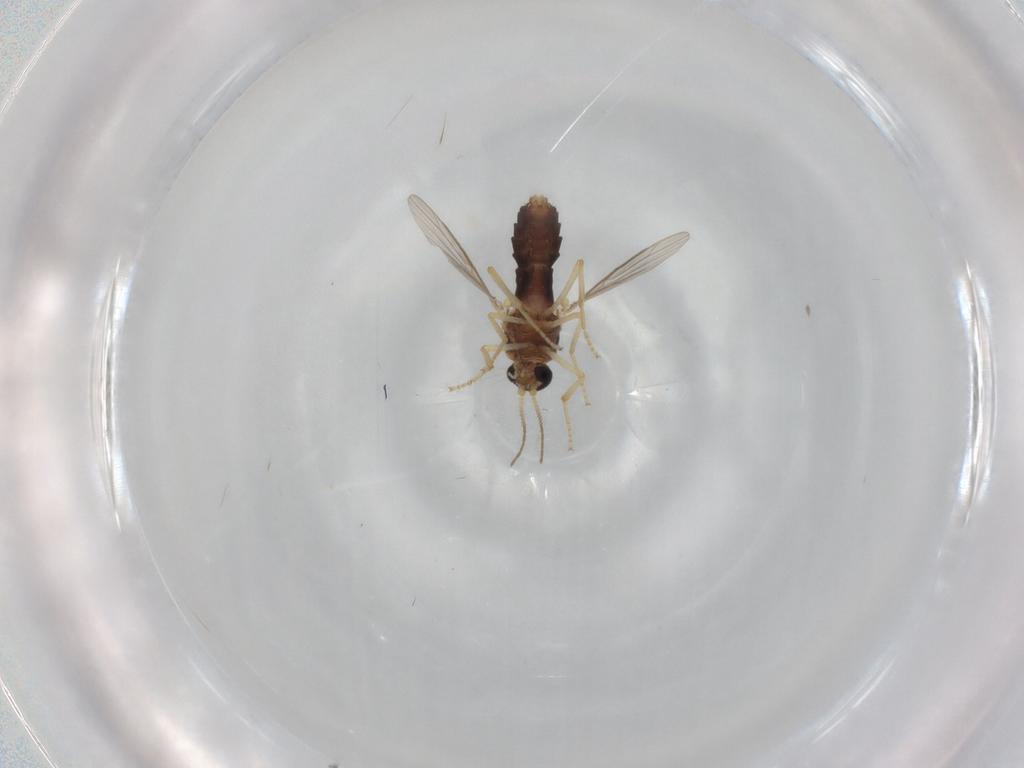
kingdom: Animalia
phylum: Arthropoda
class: Insecta
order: Diptera
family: Ceratopogonidae
